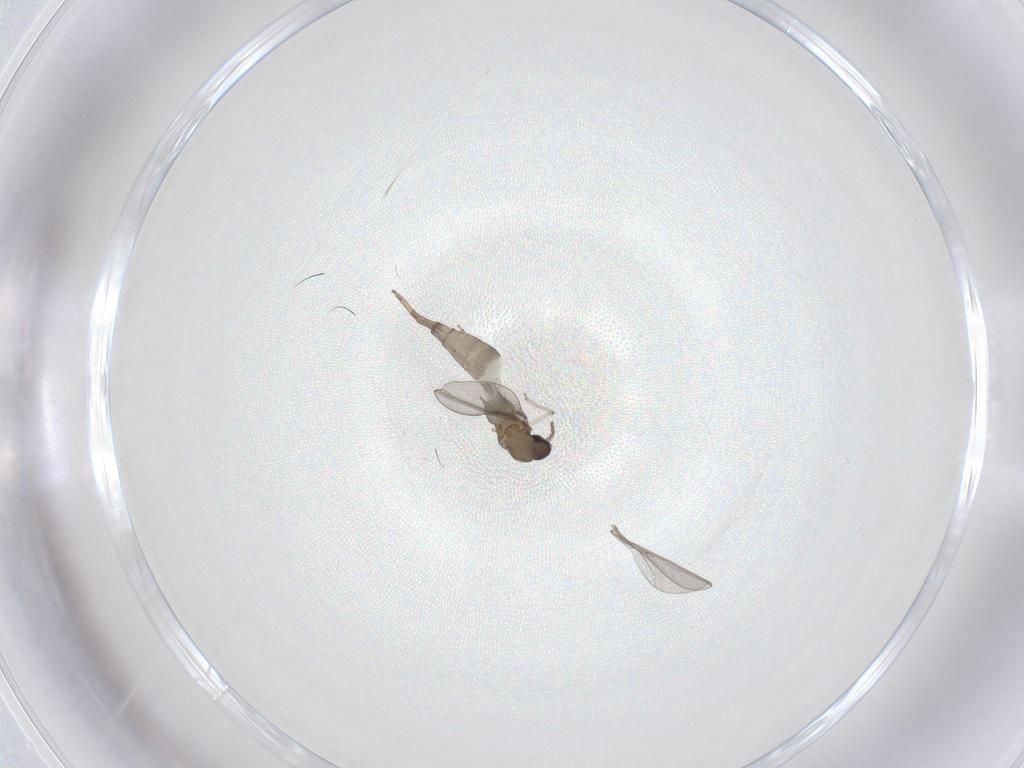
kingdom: Animalia
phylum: Arthropoda
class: Insecta
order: Diptera
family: Cecidomyiidae
